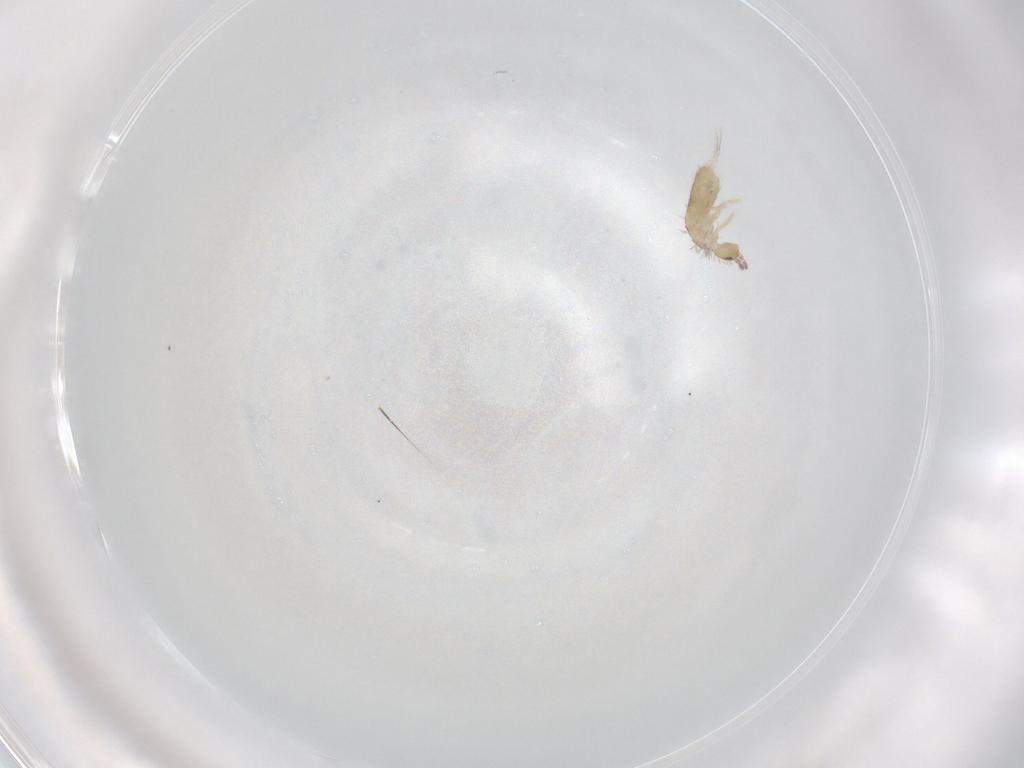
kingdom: Animalia
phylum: Arthropoda
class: Collembola
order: Entomobryomorpha
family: Entomobryidae
